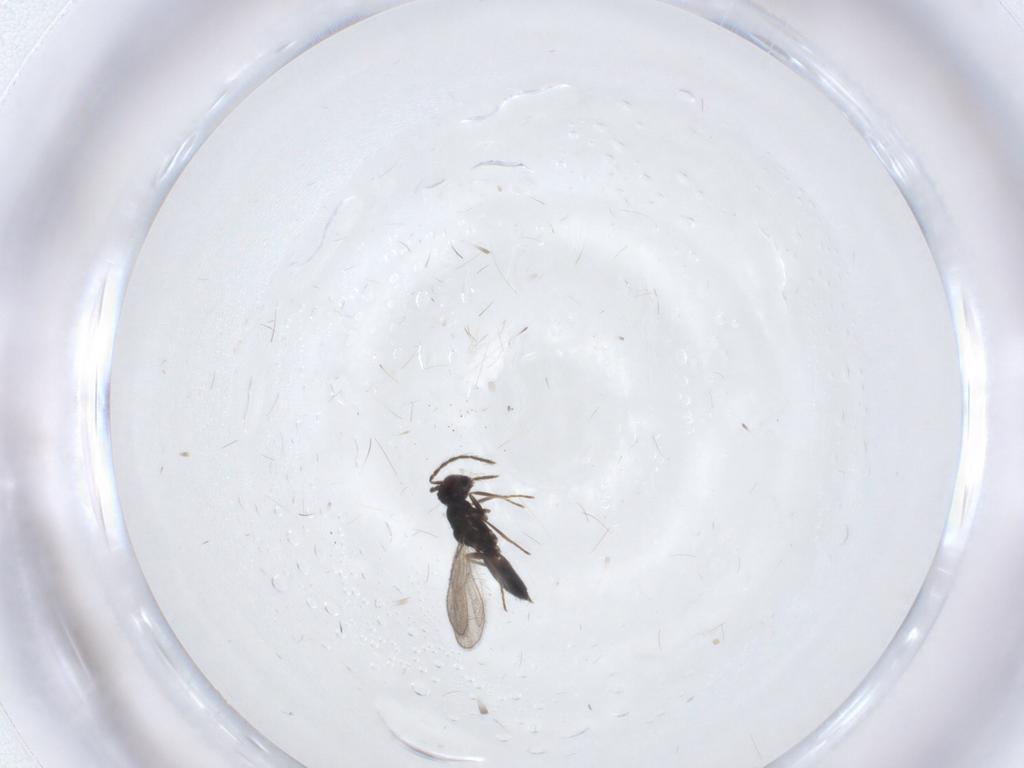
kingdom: Animalia
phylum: Arthropoda
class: Insecta
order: Hymenoptera
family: Eulophidae
